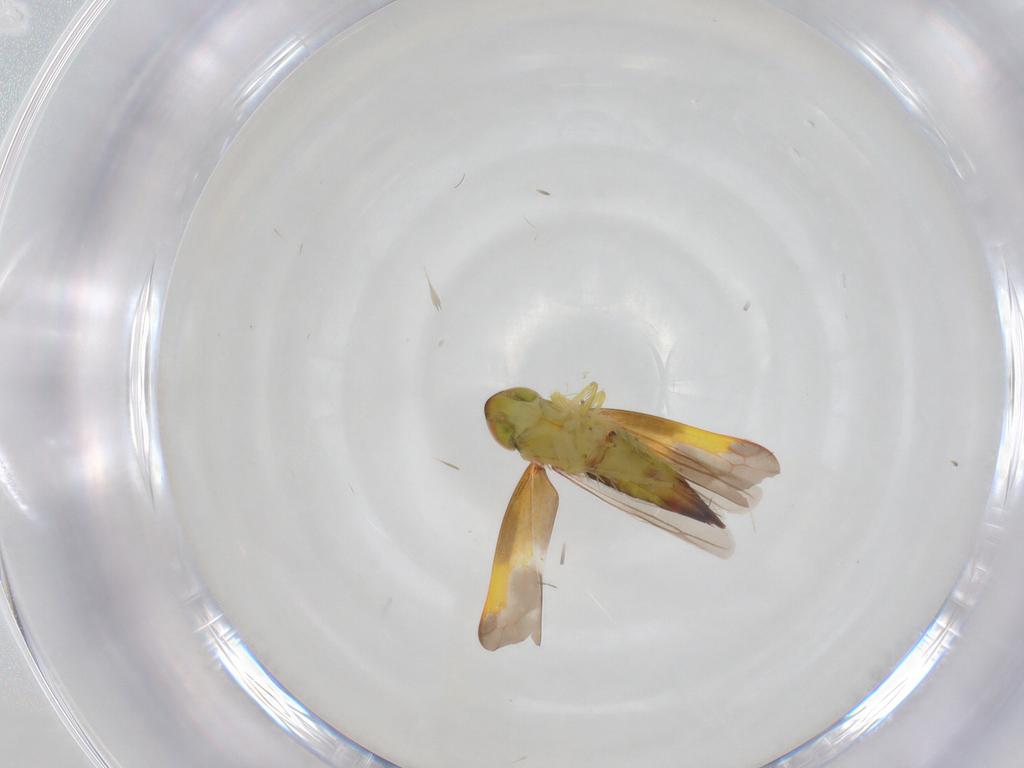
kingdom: Animalia
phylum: Arthropoda
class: Insecta
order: Hemiptera
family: Cicadellidae
